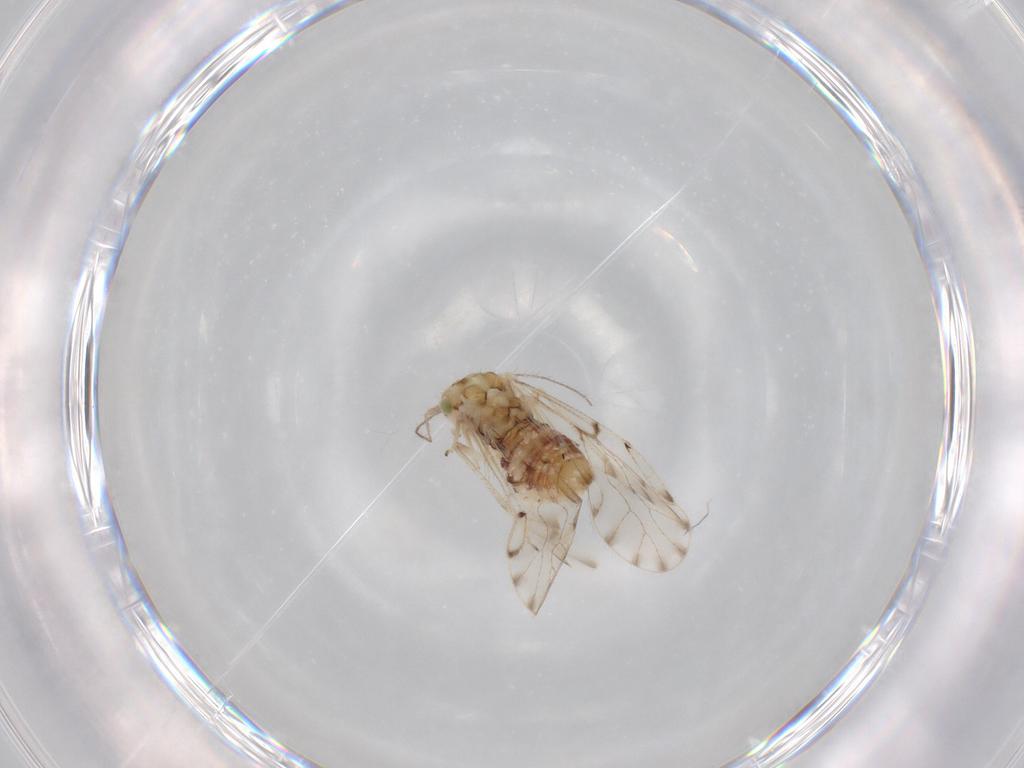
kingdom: Animalia
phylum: Arthropoda
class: Insecta
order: Psocodea
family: Ectopsocidae
